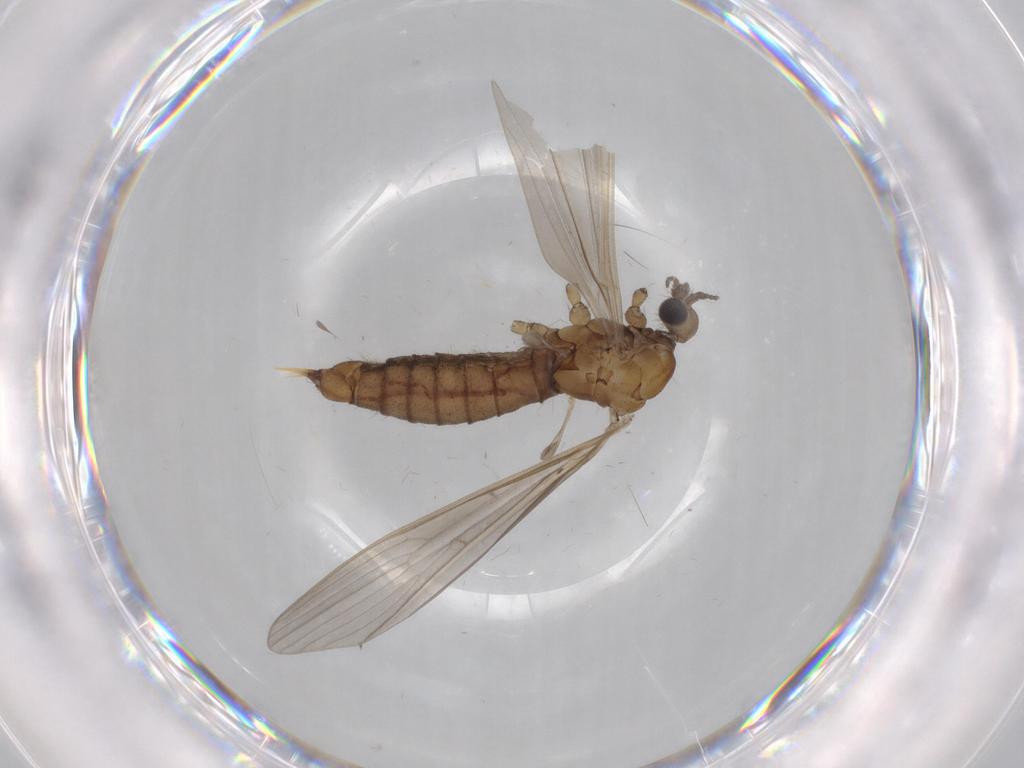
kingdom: Animalia
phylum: Arthropoda
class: Insecta
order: Diptera
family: Limoniidae
